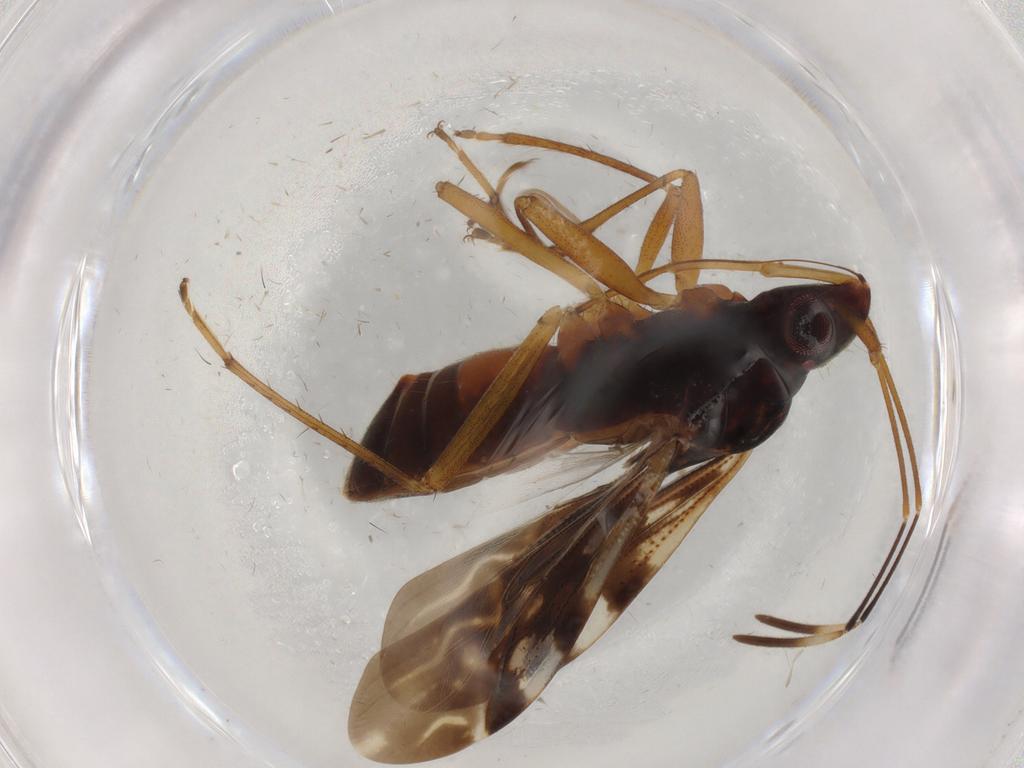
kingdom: Animalia
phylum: Arthropoda
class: Insecta
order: Hemiptera
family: Rhyparochromidae
